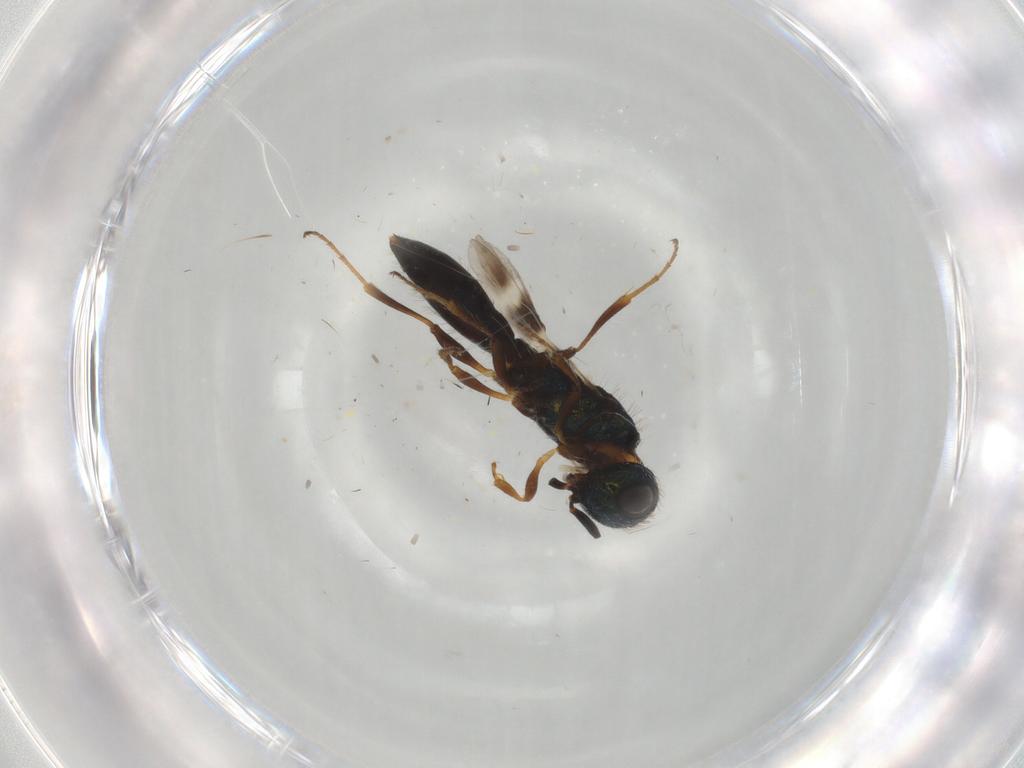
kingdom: Animalia
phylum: Arthropoda
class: Insecta
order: Hymenoptera
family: Scelionidae
